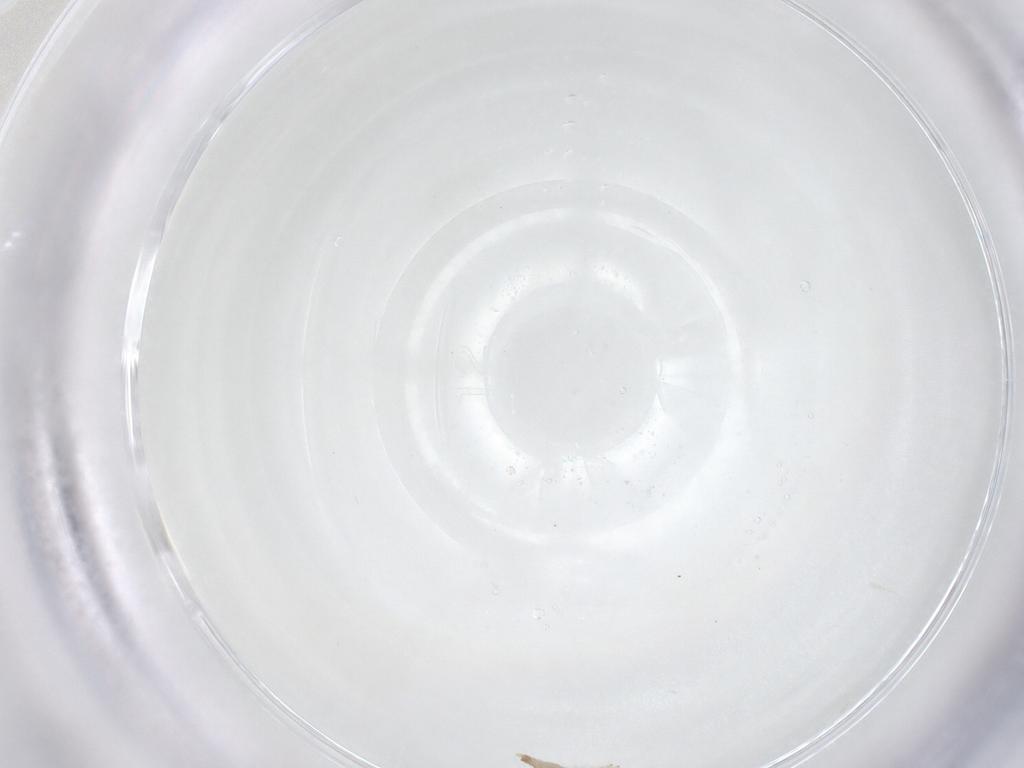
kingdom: Animalia
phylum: Arthropoda
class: Insecta
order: Diptera
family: Cecidomyiidae
